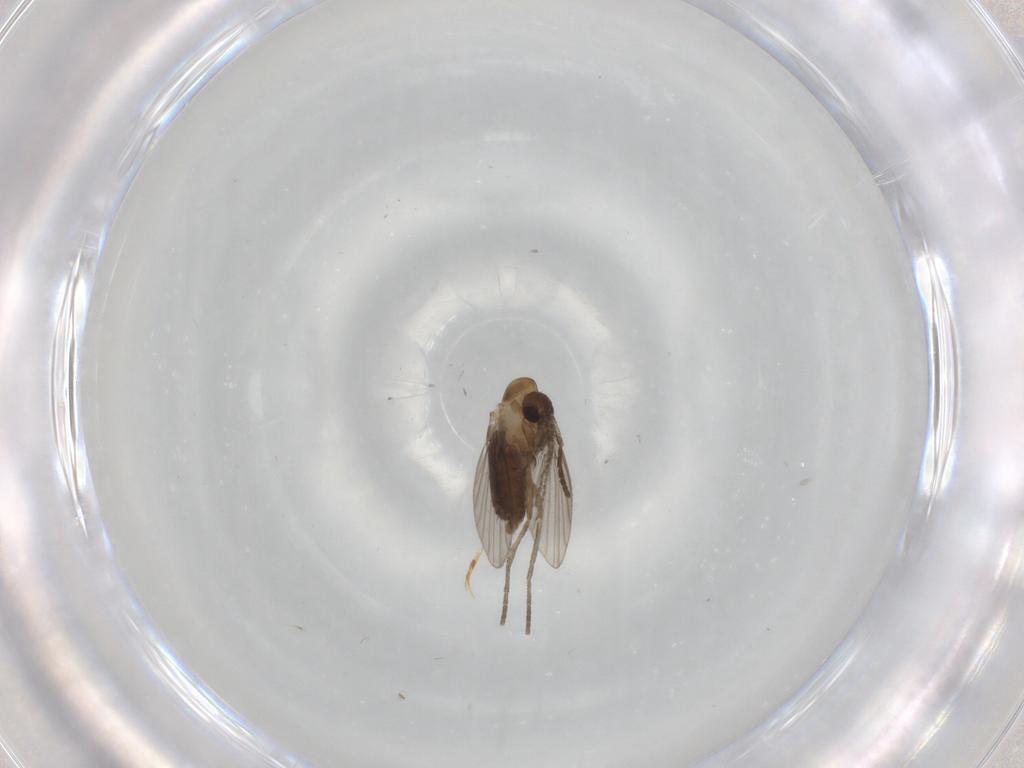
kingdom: Animalia
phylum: Arthropoda
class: Insecta
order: Diptera
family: Psychodidae
